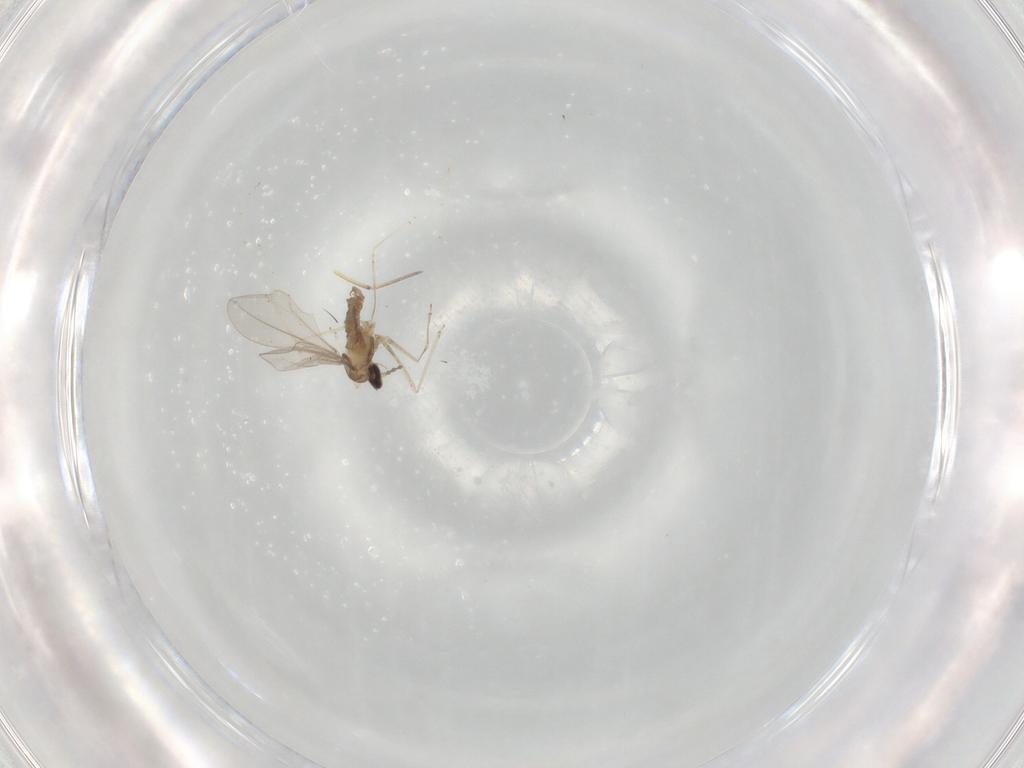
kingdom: Animalia
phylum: Arthropoda
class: Insecta
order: Diptera
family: Cecidomyiidae
